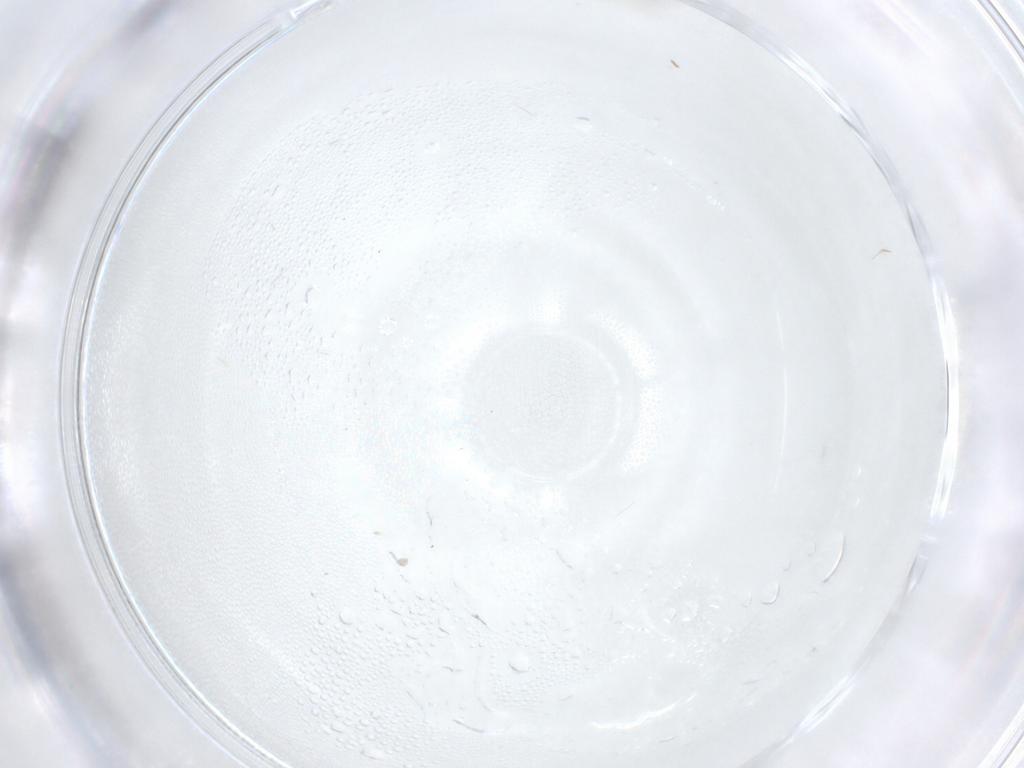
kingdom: Animalia
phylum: Arthropoda
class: Insecta
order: Diptera
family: Cecidomyiidae
